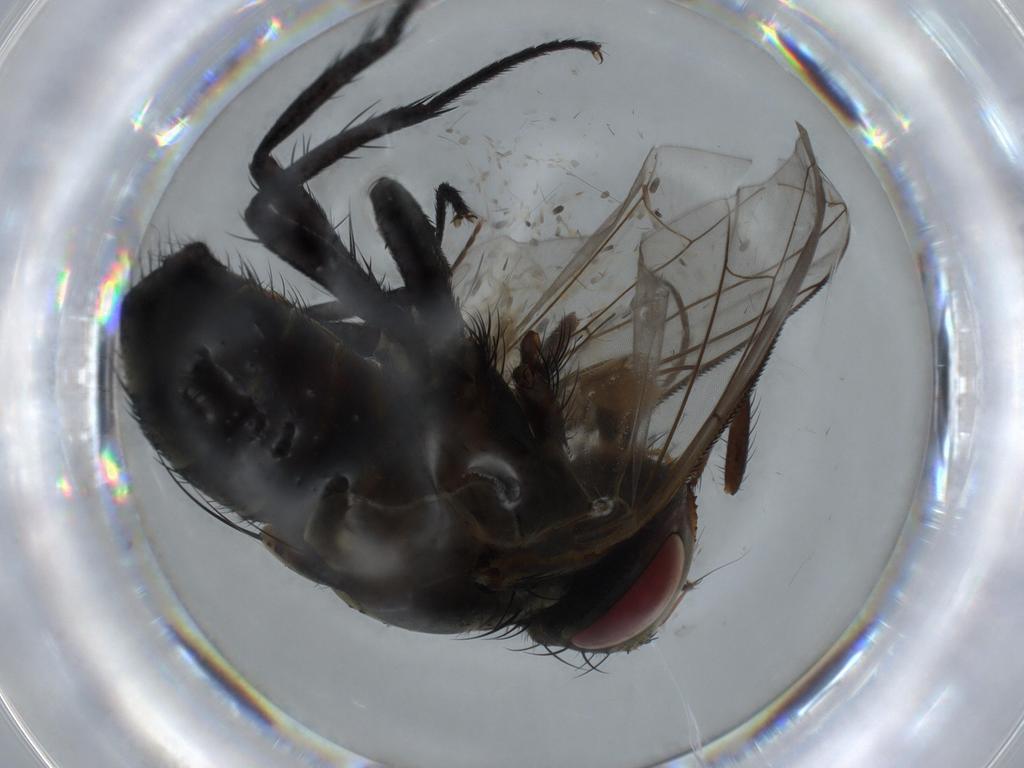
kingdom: Animalia
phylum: Arthropoda
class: Insecta
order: Diptera
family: Tachinidae
